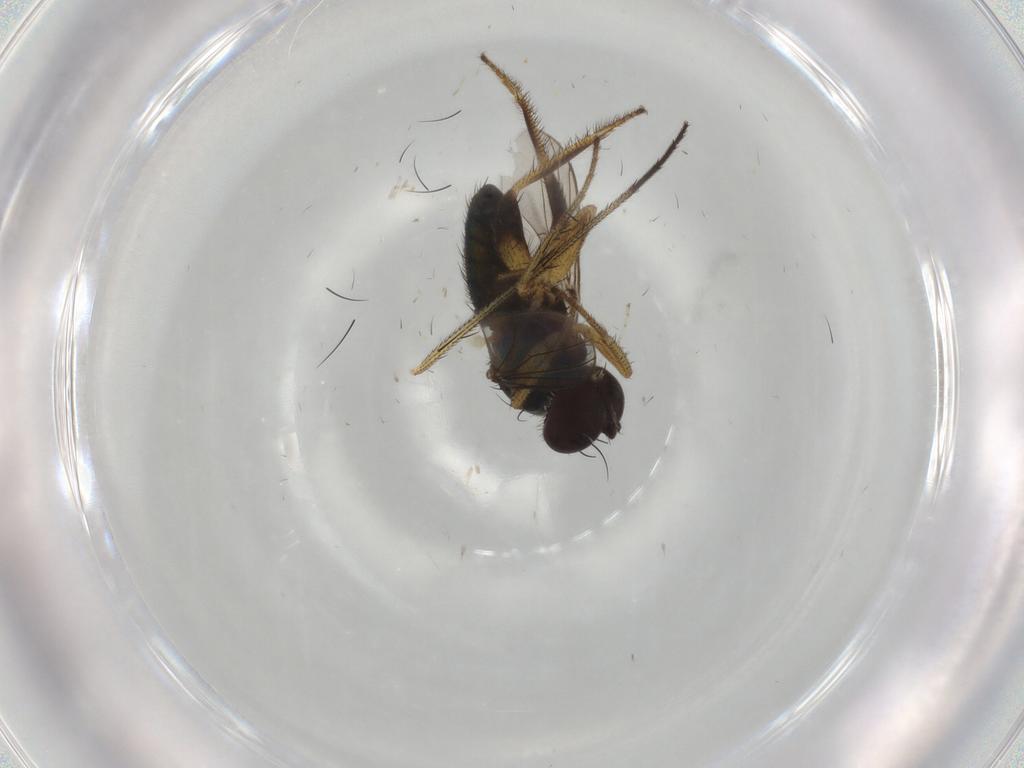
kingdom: Animalia
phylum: Arthropoda
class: Insecta
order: Diptera
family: Dolichopodidae
